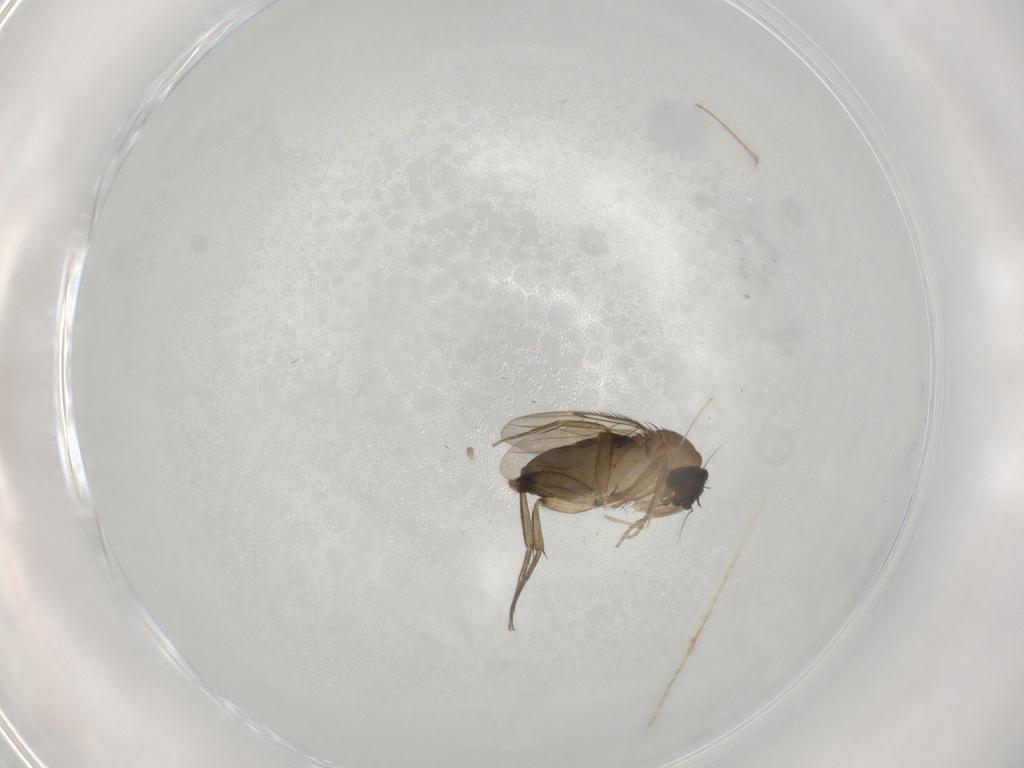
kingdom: Animalia
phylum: Arthropoda
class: Insecta
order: Diptera
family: Phoridae
